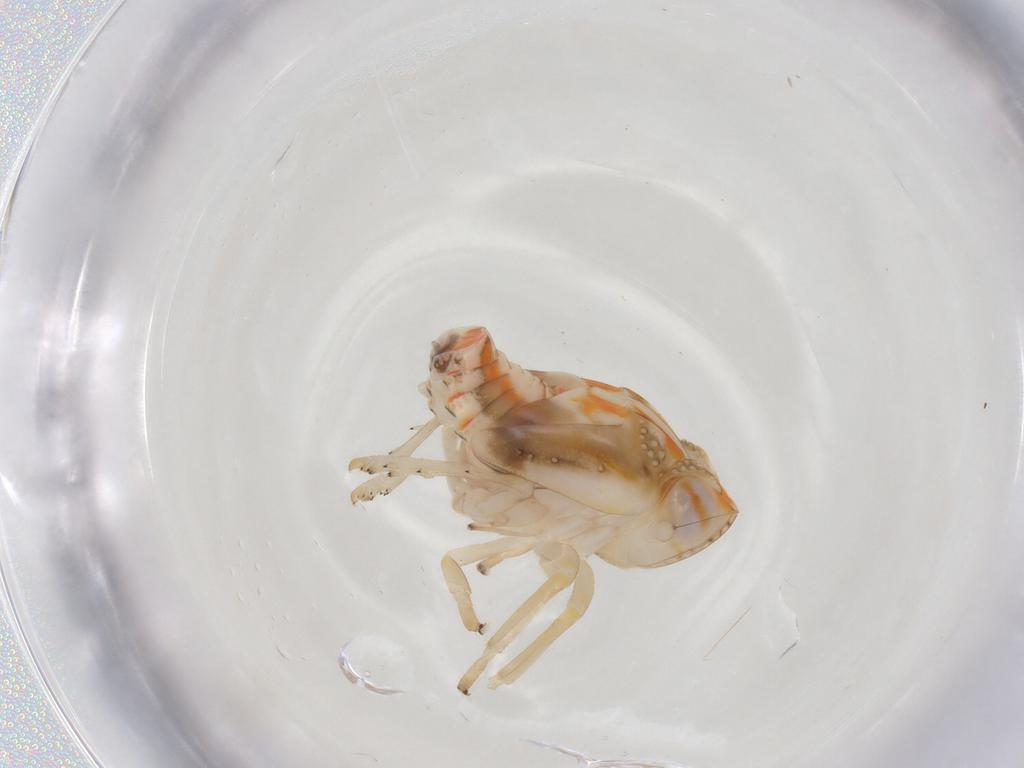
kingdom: Animalia
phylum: Arthropoda
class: Insecta
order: Hemiptera
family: Nogodinidae
